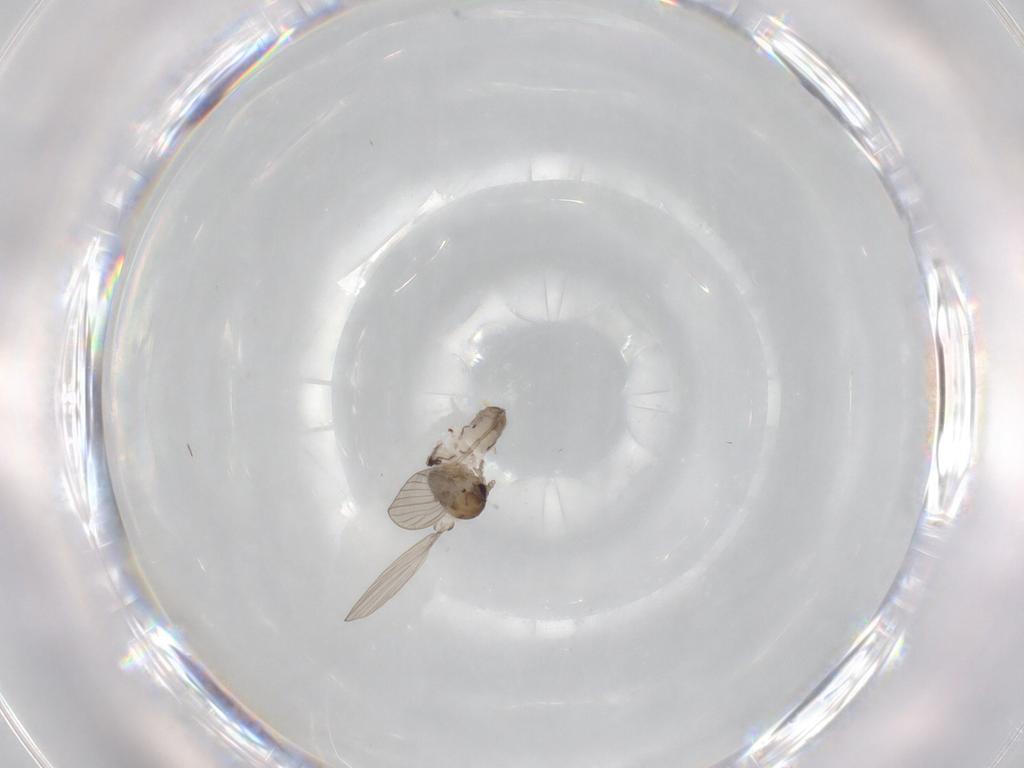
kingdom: Animalia
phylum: Arthropoda
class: Insecta
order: Diptera
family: Psychodidae
